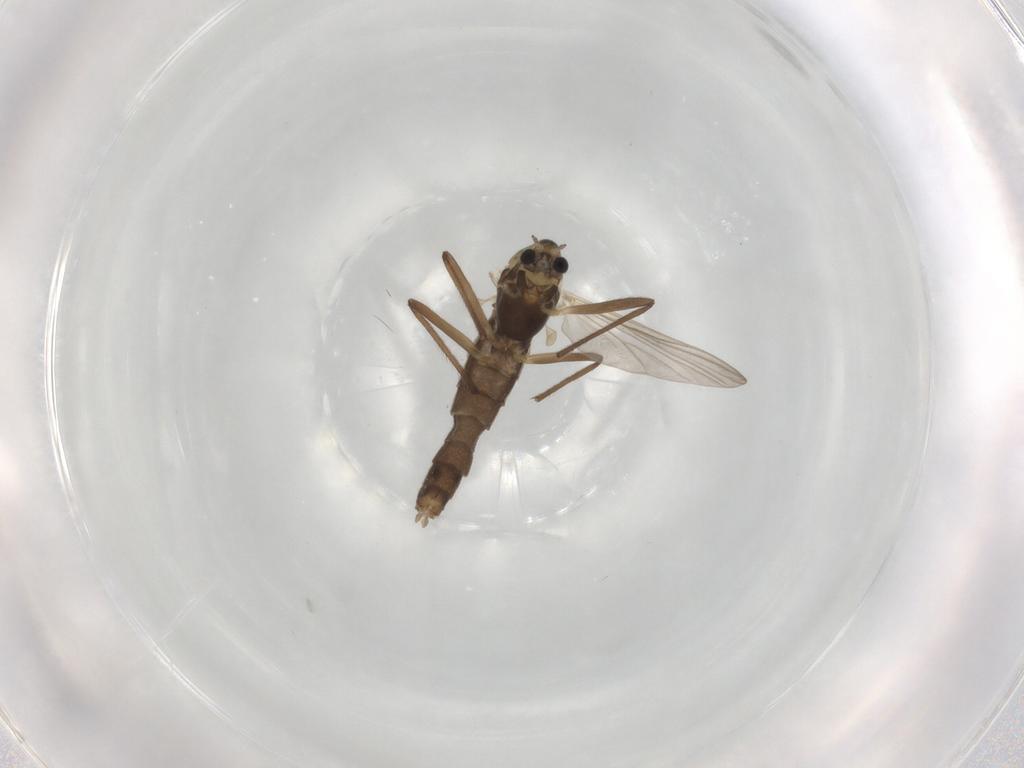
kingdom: Animalia
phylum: Arthropoda
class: Insecta
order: Diptera
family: Chironomidae
